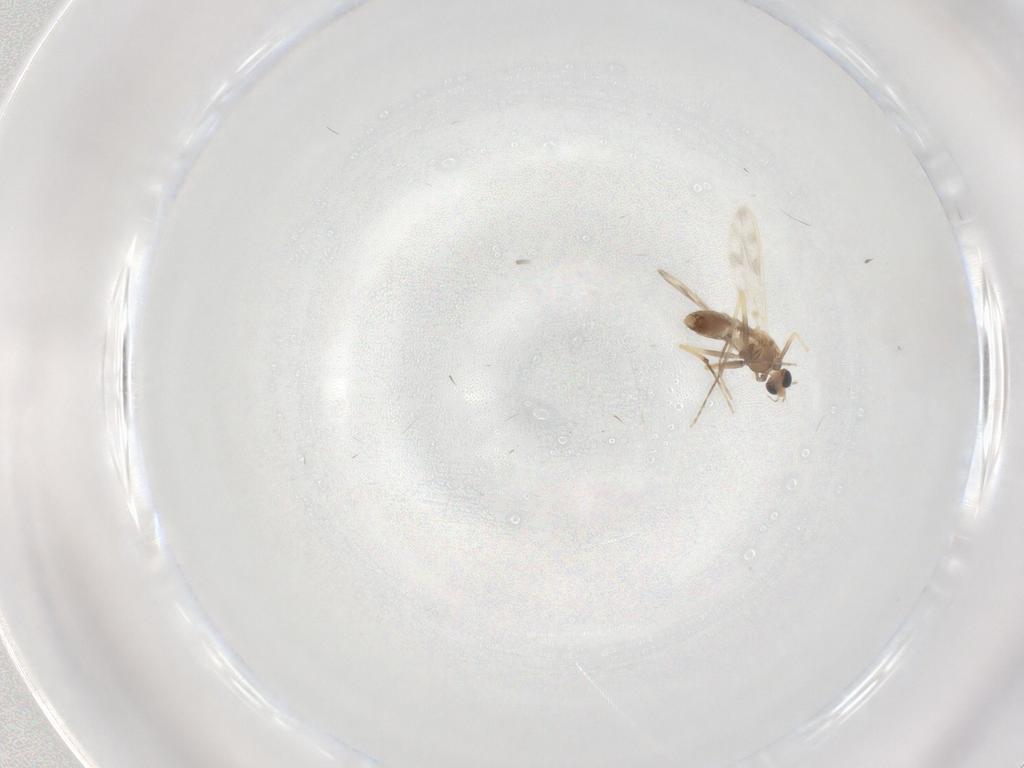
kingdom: Animalia
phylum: Arthropoda
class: Insecta
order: Diptera
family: Chironomidae
